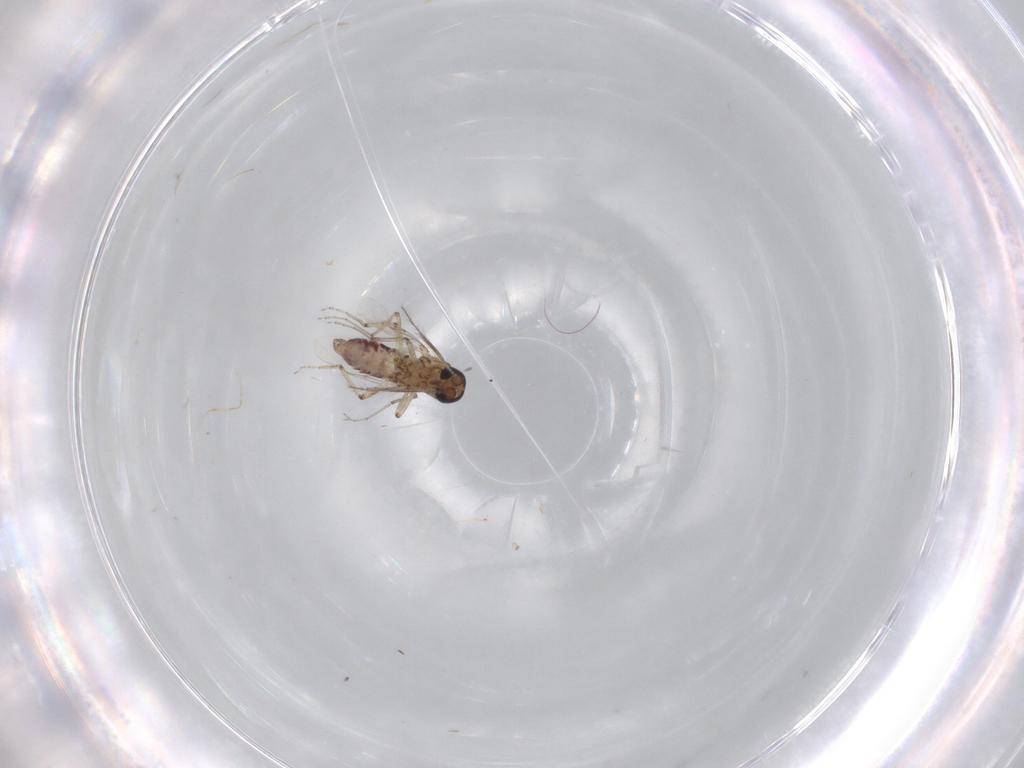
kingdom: Animalia
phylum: Arthropoda
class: Insecta
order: Diptera
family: Ceratopogonidae
